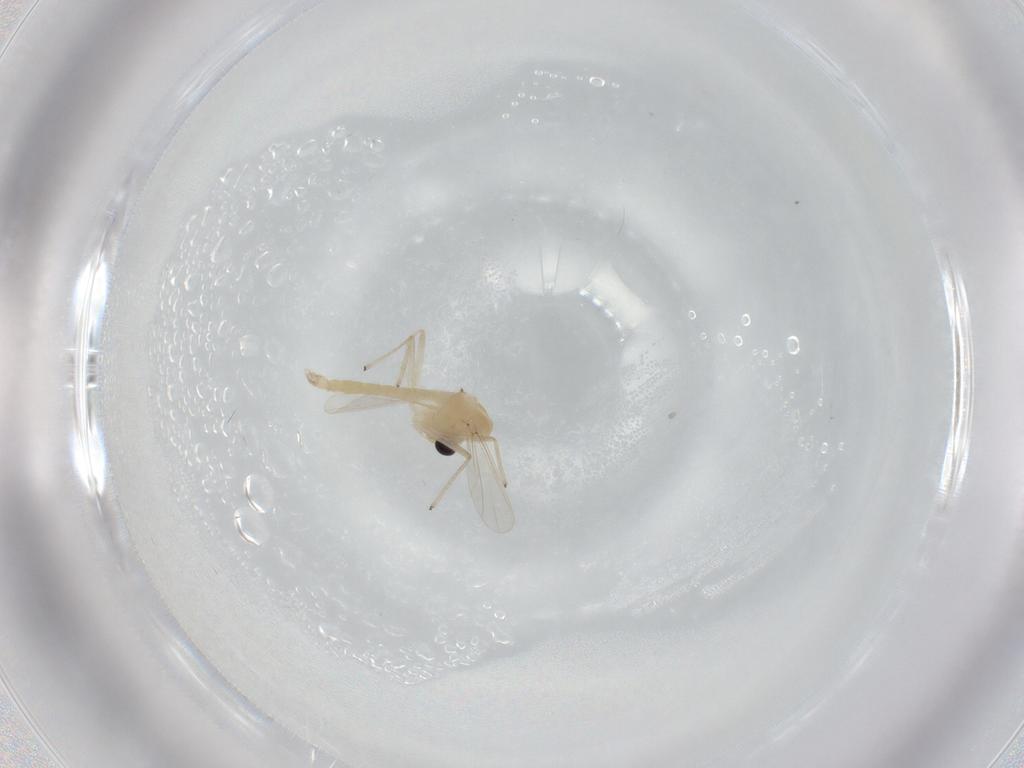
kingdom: Animalia
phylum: Arthropoda
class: Insecta
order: Diptera
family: Chironomidae
